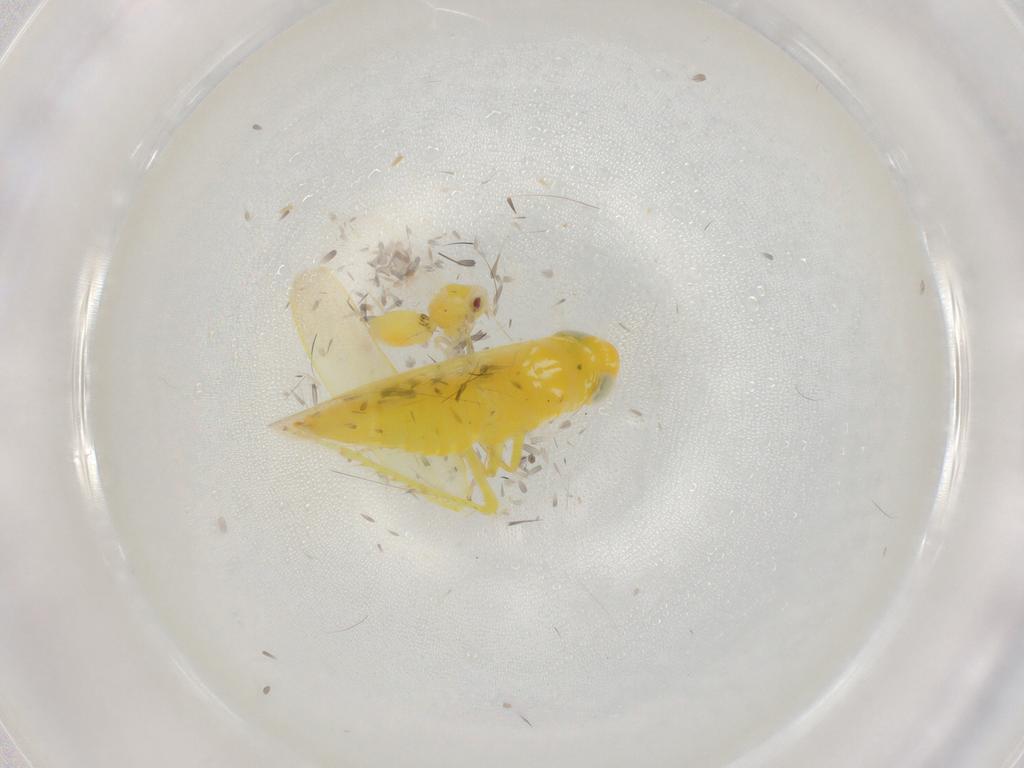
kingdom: Animalia
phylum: Arthropoda
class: Insecta
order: Hemiptera
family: Cicadellidae
